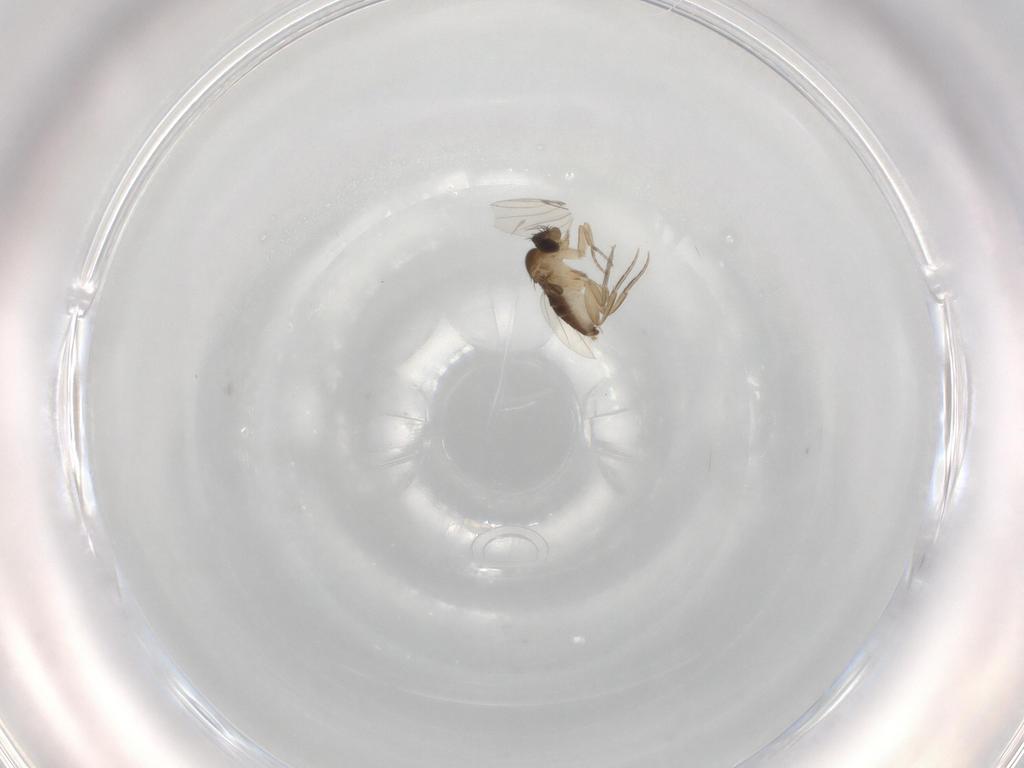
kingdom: Animalia
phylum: Arthropoda
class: Insecta
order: Diptera
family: Phoridae
